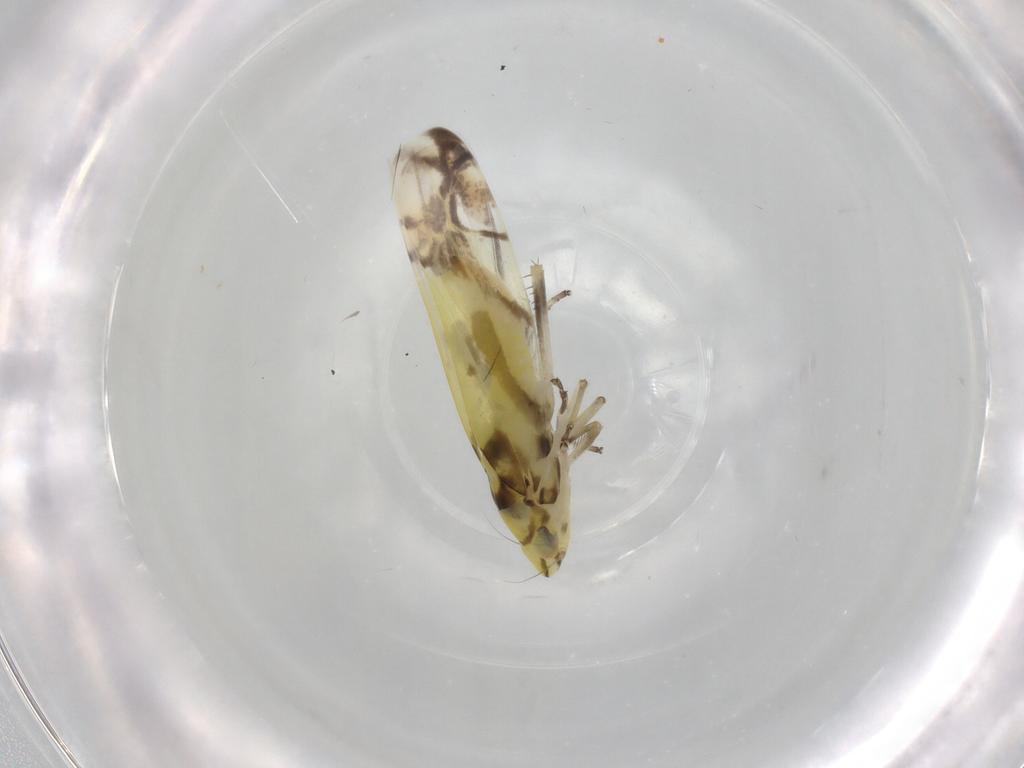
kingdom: Animalia
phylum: Arthropoda
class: Insecta
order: Hemiptera
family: Cicadellidae
